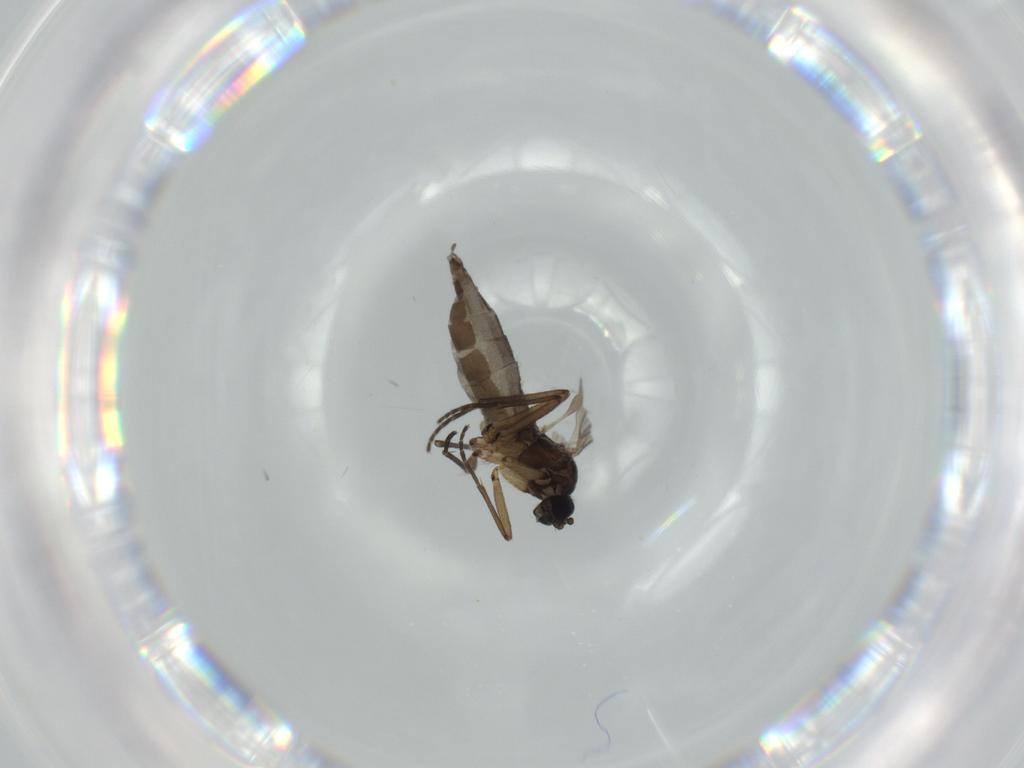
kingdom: Animalia
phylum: Arthropoda
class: Insecta
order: Diptera
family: Sciaridae
